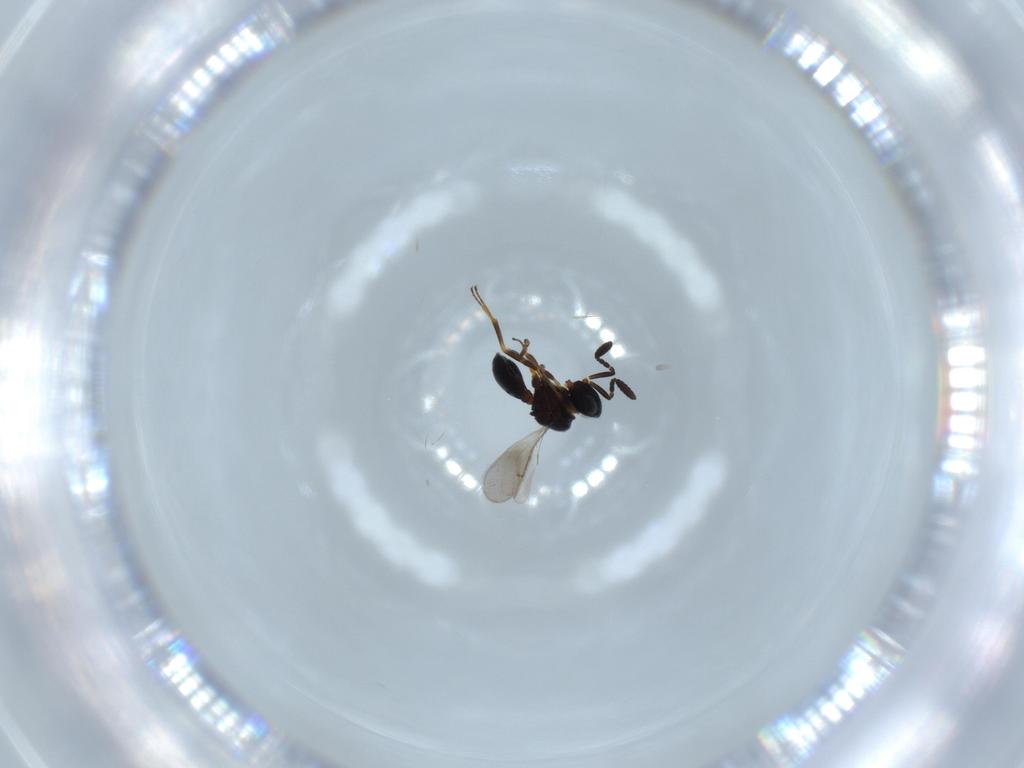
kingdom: Animalia
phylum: Arthropoda
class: Insecta
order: Hymenoptera
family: Scelionidae
